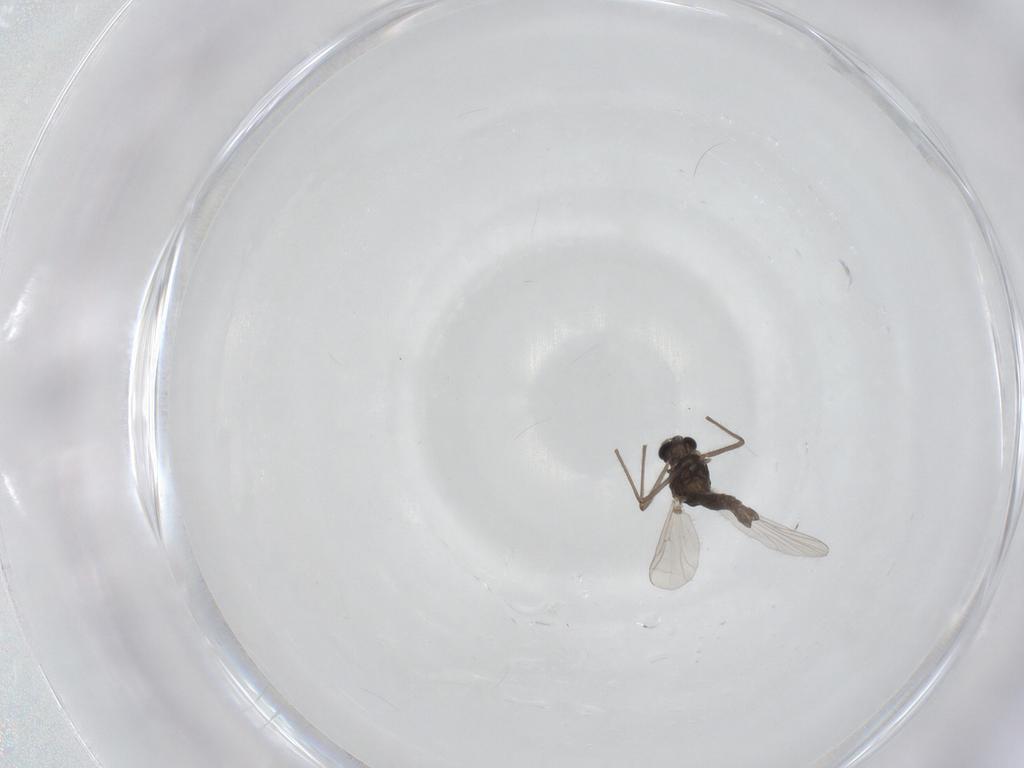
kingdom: Animalia
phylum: Arthropoda
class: Insecta
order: Diptera
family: Chironomidae
